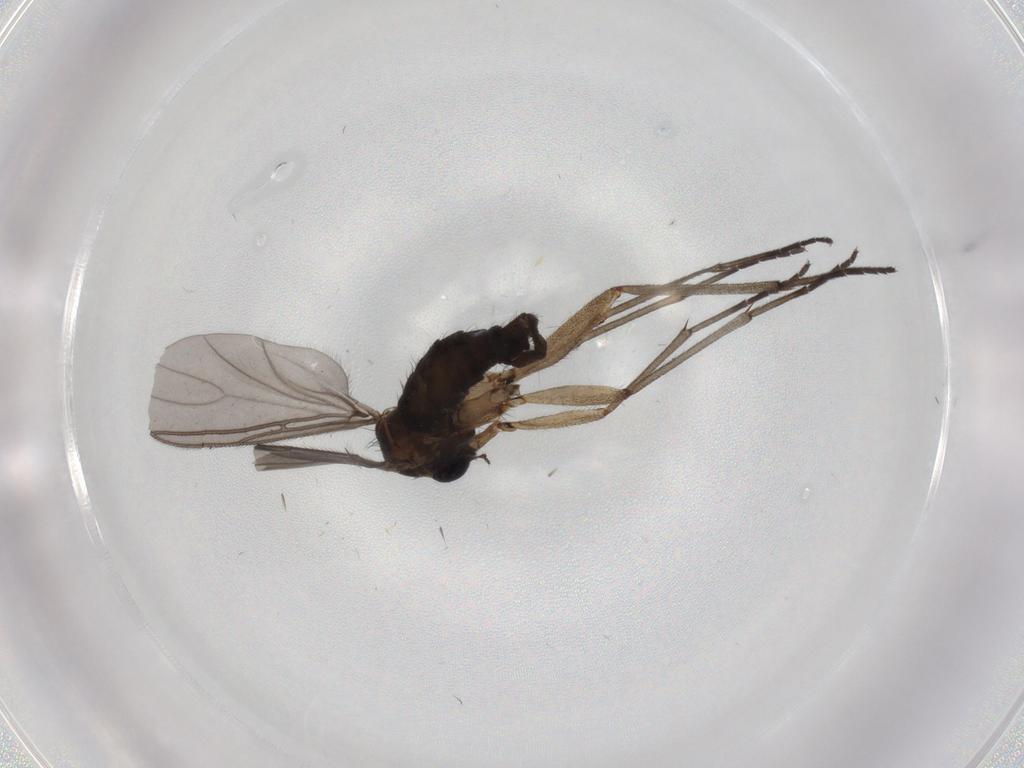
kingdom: Animalia
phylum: Arthropoda
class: Insecta
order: Diptera
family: Sciaridae
